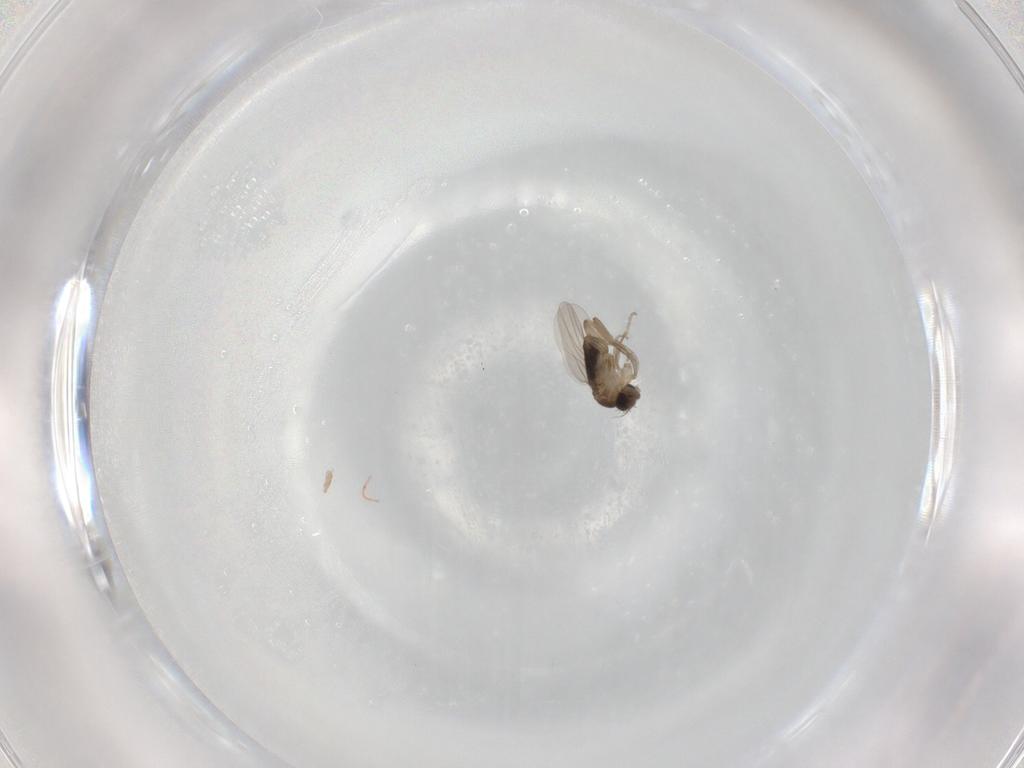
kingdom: Animalia
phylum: Arthropoda
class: Insecta
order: Diptera
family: Phoridae
